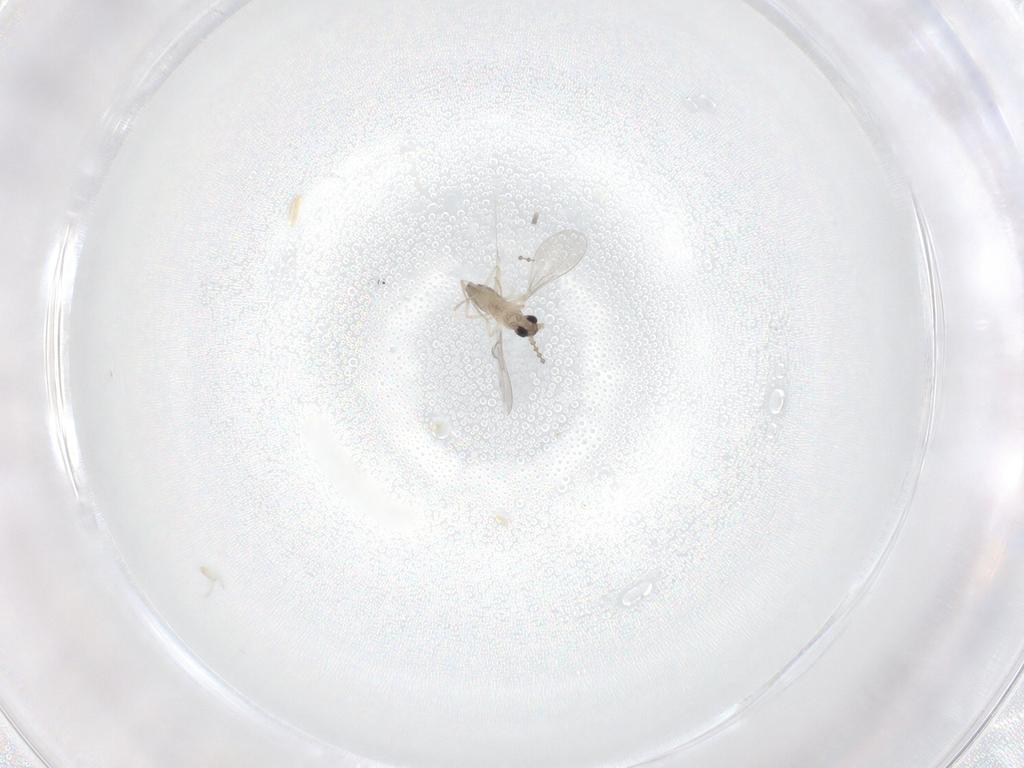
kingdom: Animalia
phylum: Arthropoda
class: Insecta
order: Diptera
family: Cecidomyiidae
